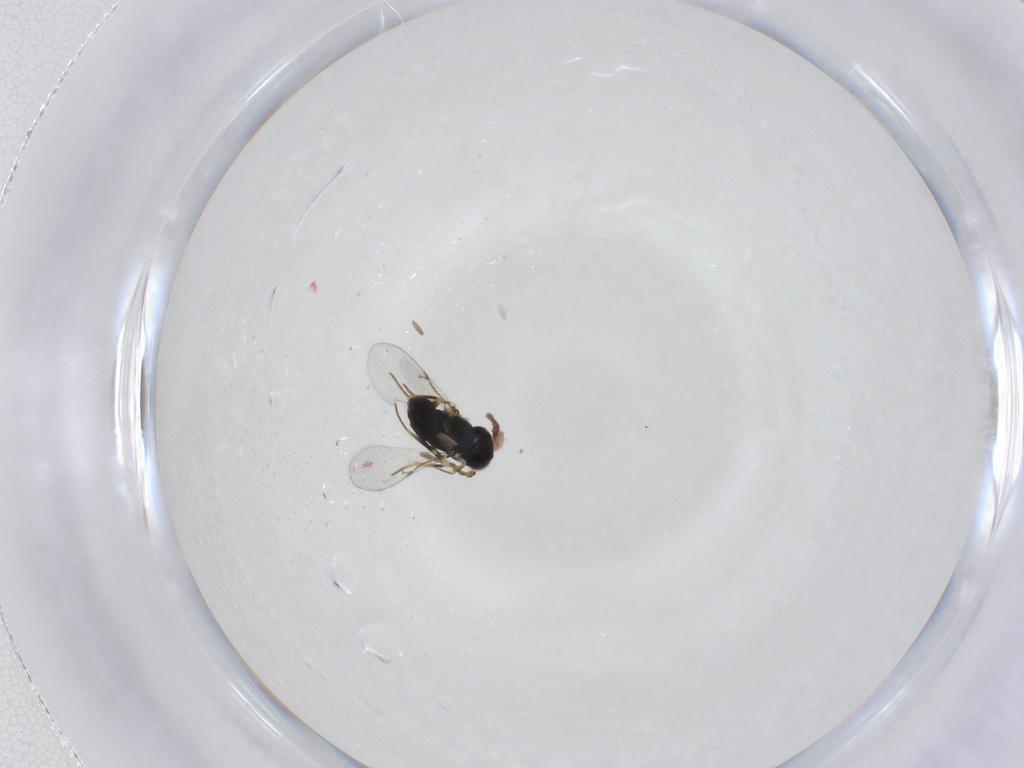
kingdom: Animalia
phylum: Arthropoda
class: Insecta
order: Hymenoptera
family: Encyrtidae
